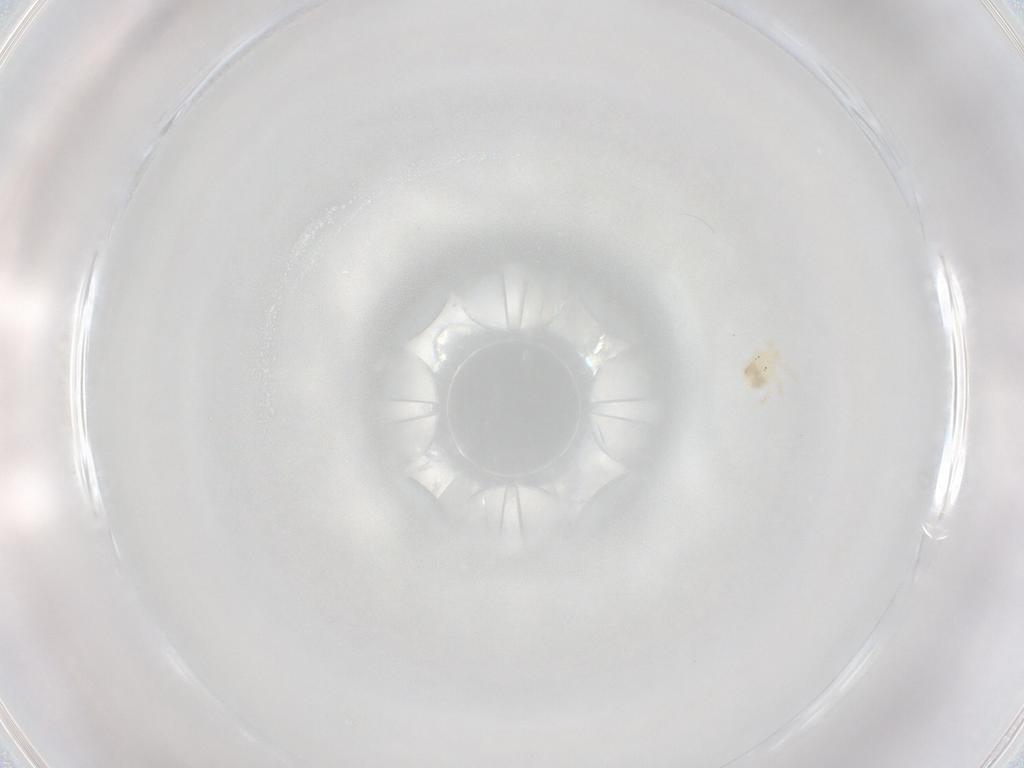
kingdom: Animalia
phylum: Arthropoda
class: Arachnida
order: Trombidiformes
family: Hydryphantidae
